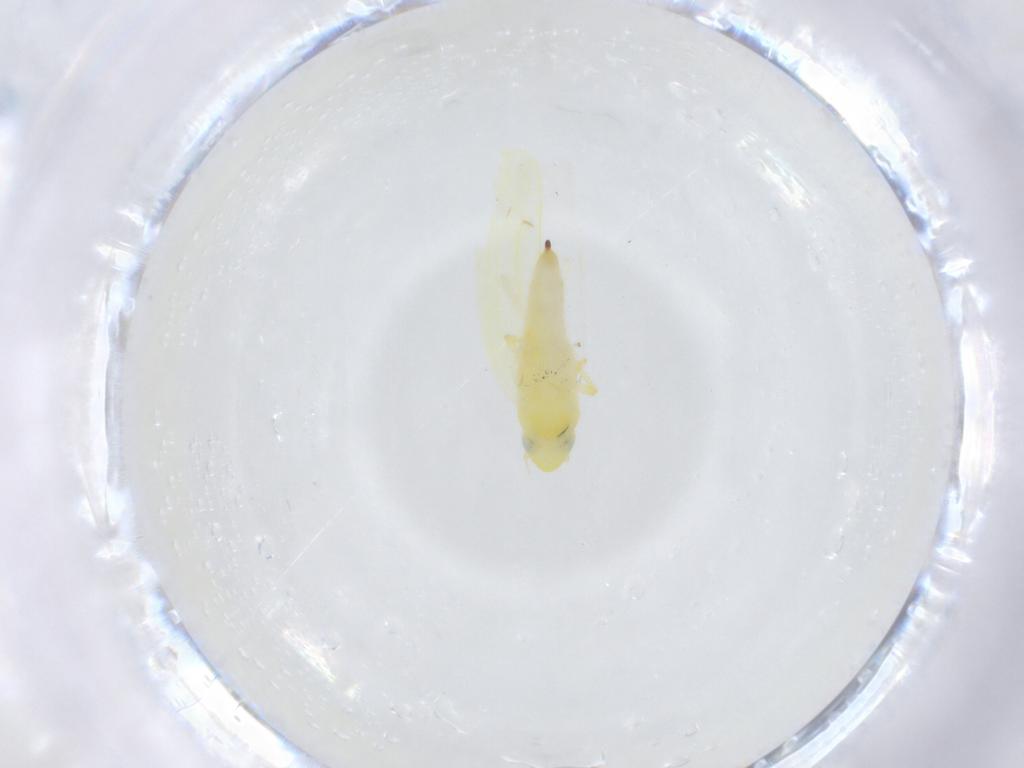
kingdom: Animalia
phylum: Arthropoda
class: Insecta
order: Hemiptera
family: Cicadellidae
